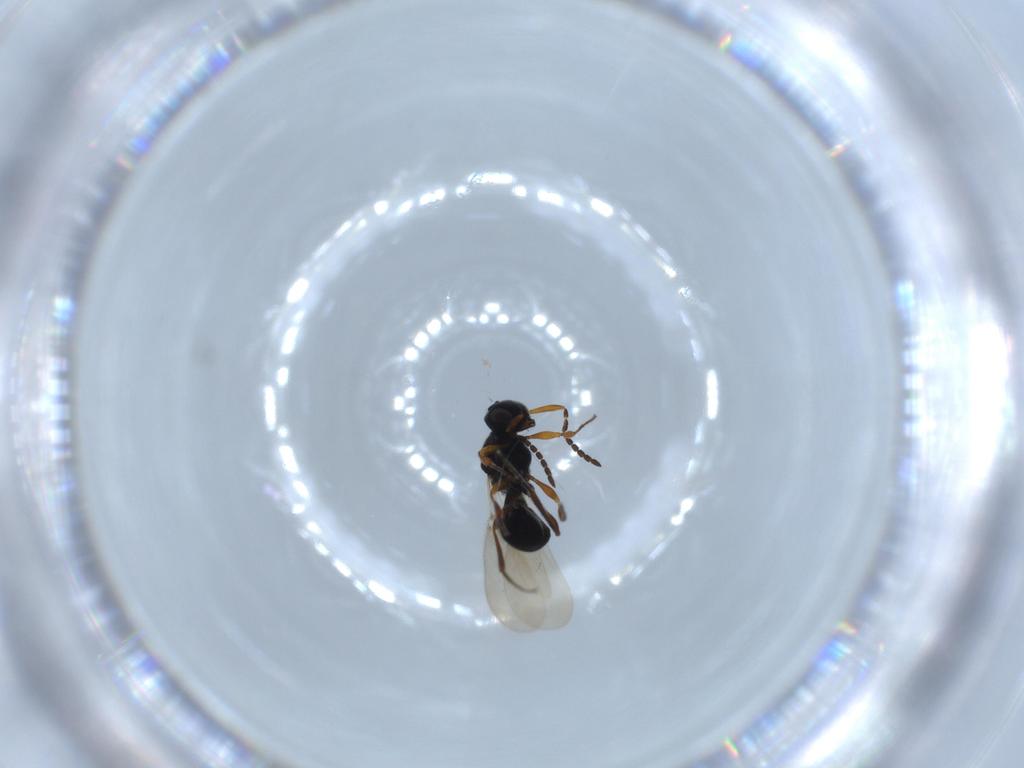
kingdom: Animalia
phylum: Arthropoda
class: Insecta
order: Hymenoptera
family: Platygastridae
